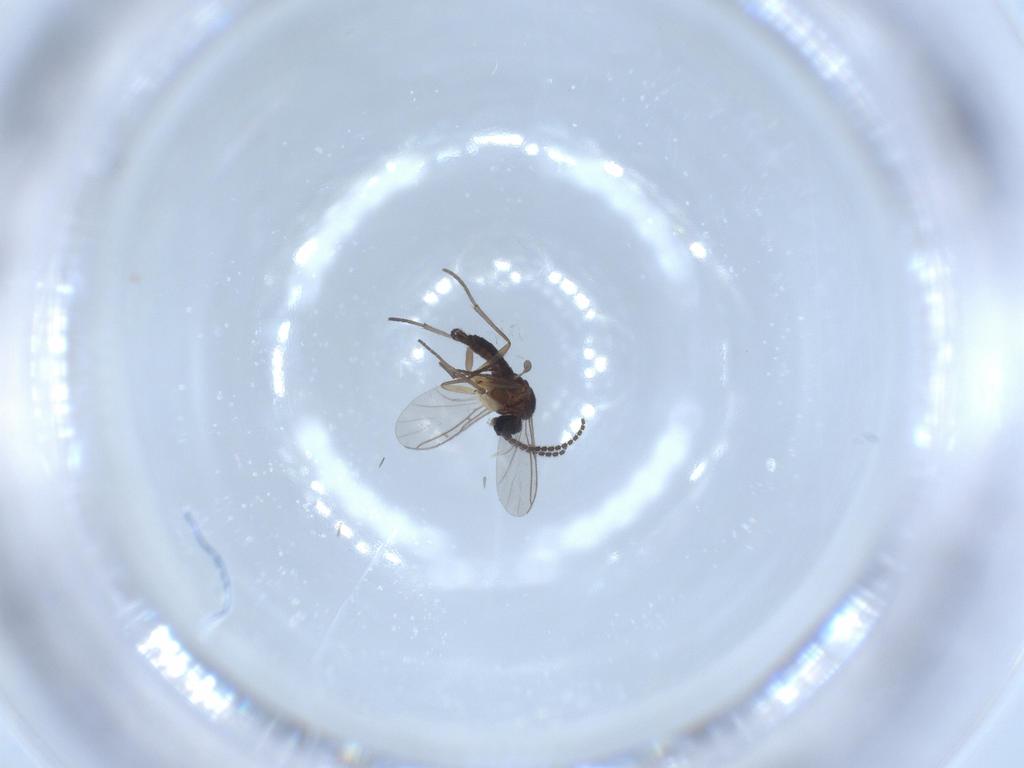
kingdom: Animalia
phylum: Arthropoda
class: Insecta
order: Diptera
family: Sciaridae
